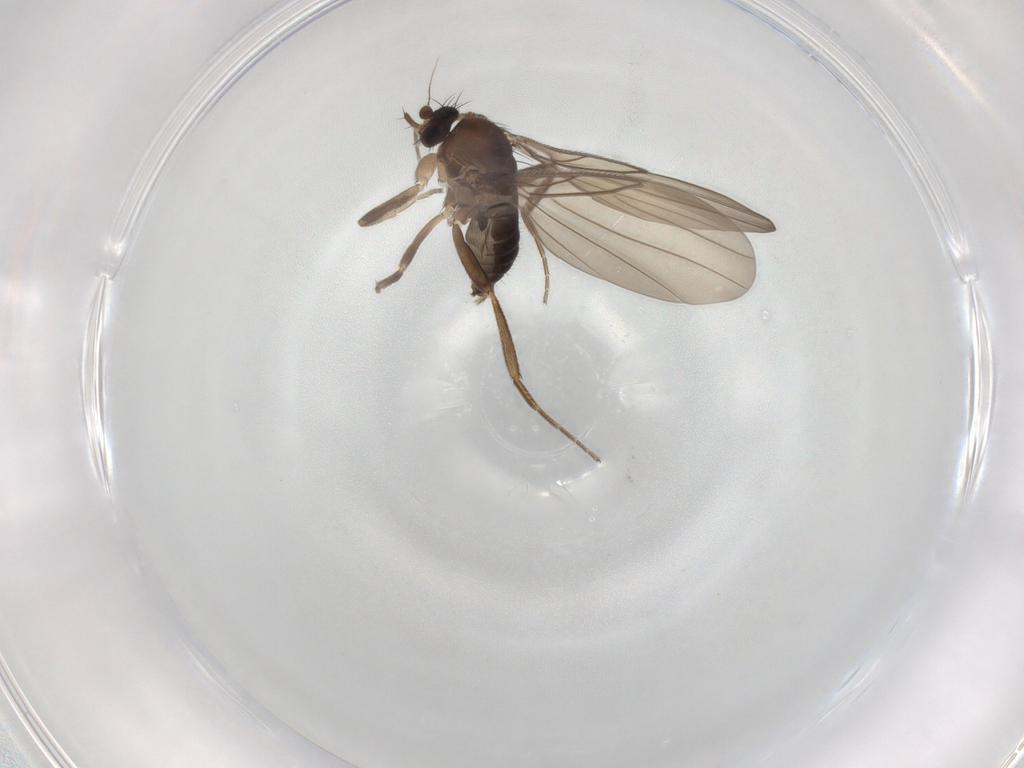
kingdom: Animalia
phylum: Arthropoda
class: Insecta
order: Diptera
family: Phoridae
